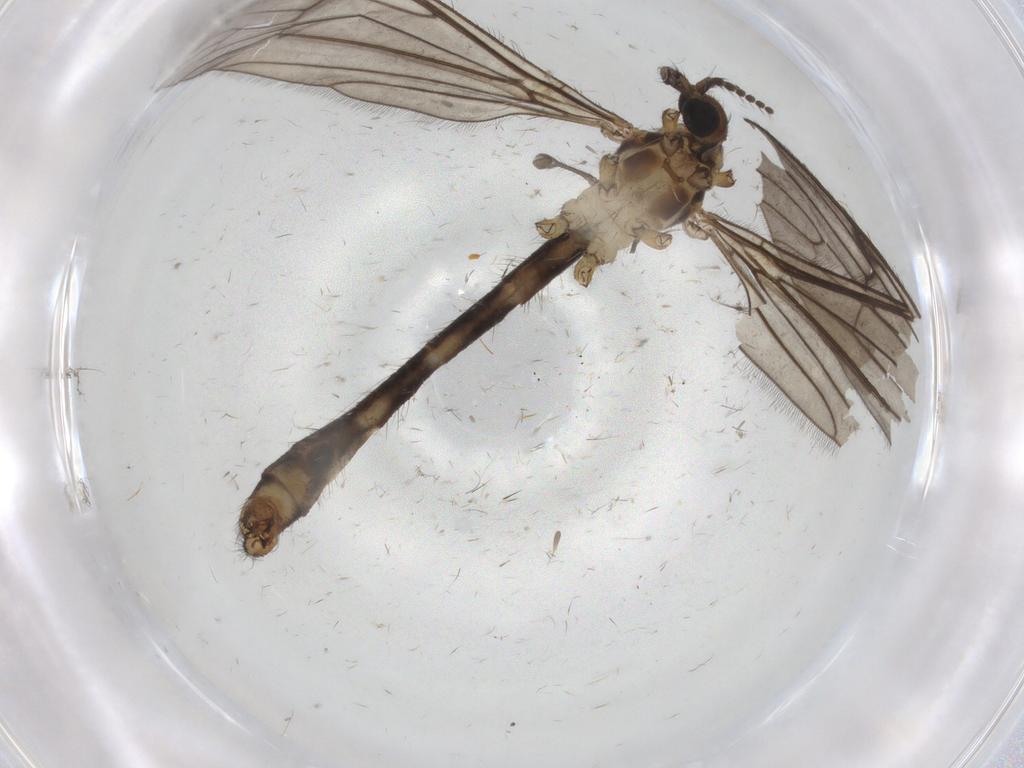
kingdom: Animalia
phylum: Arthropoda
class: Insecta
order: Diptera
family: Limoniidae
